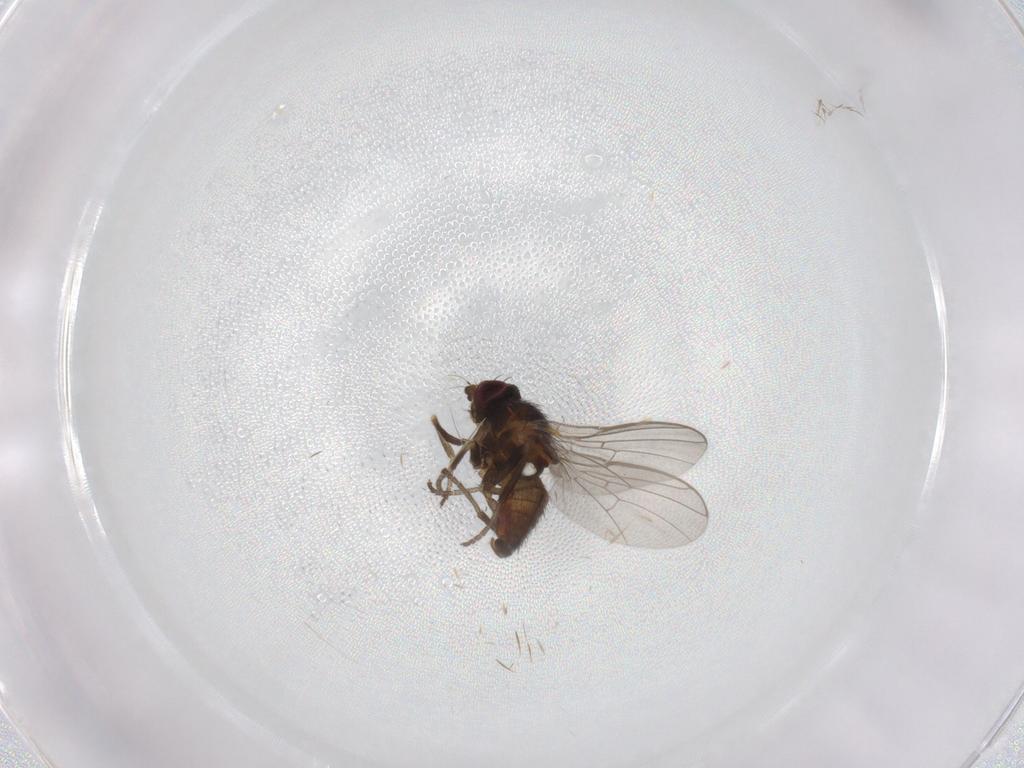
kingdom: Animalia
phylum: Arthropoda
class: Insecta
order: Diptera
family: Agromyzidae
